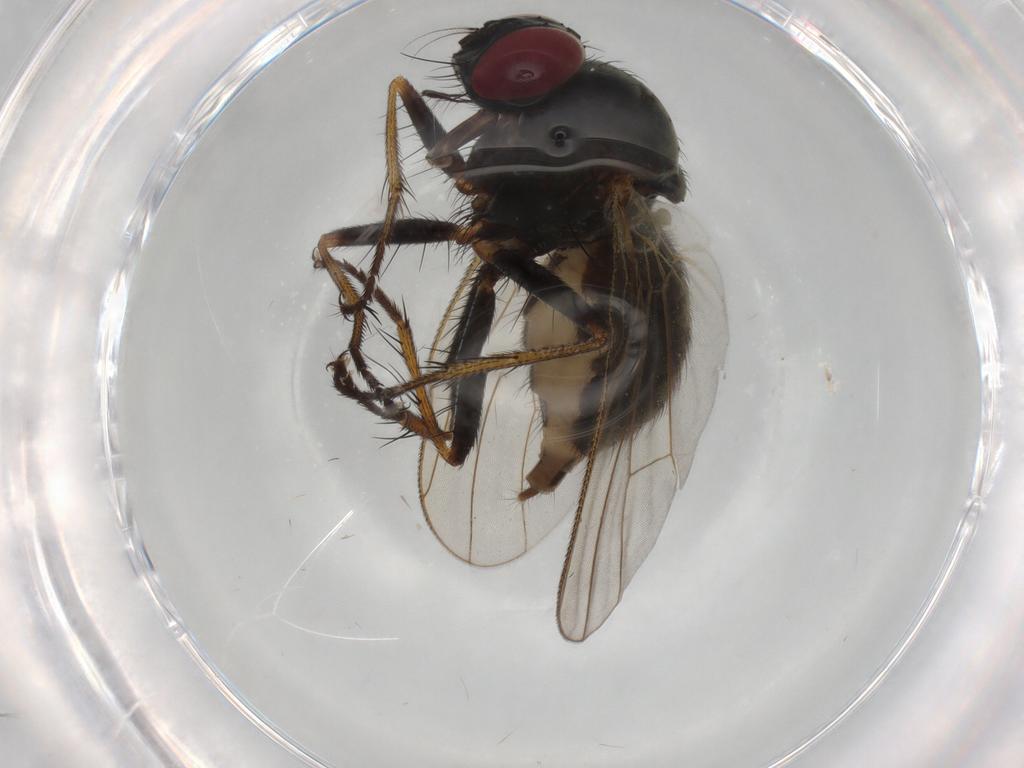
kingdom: Animalia
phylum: Arthropoda
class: Insecta
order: Diptera
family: Muscidae
